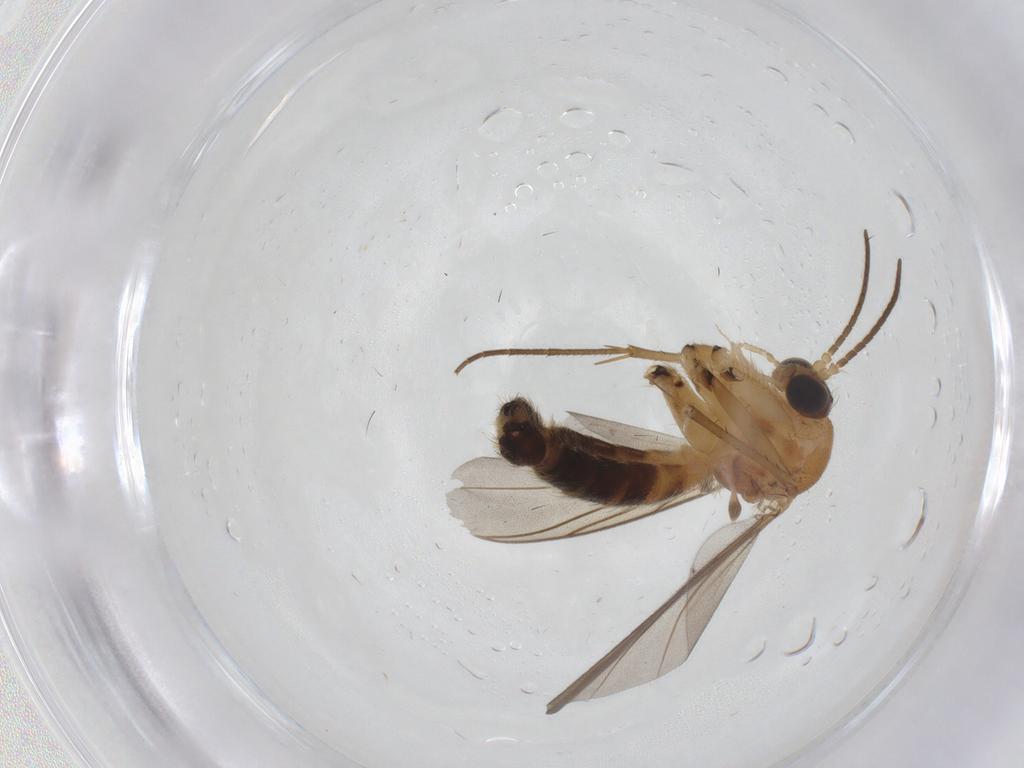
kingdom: Animalia
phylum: Arthropoda
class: Insecta
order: Diptera
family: Mycetophilidae
